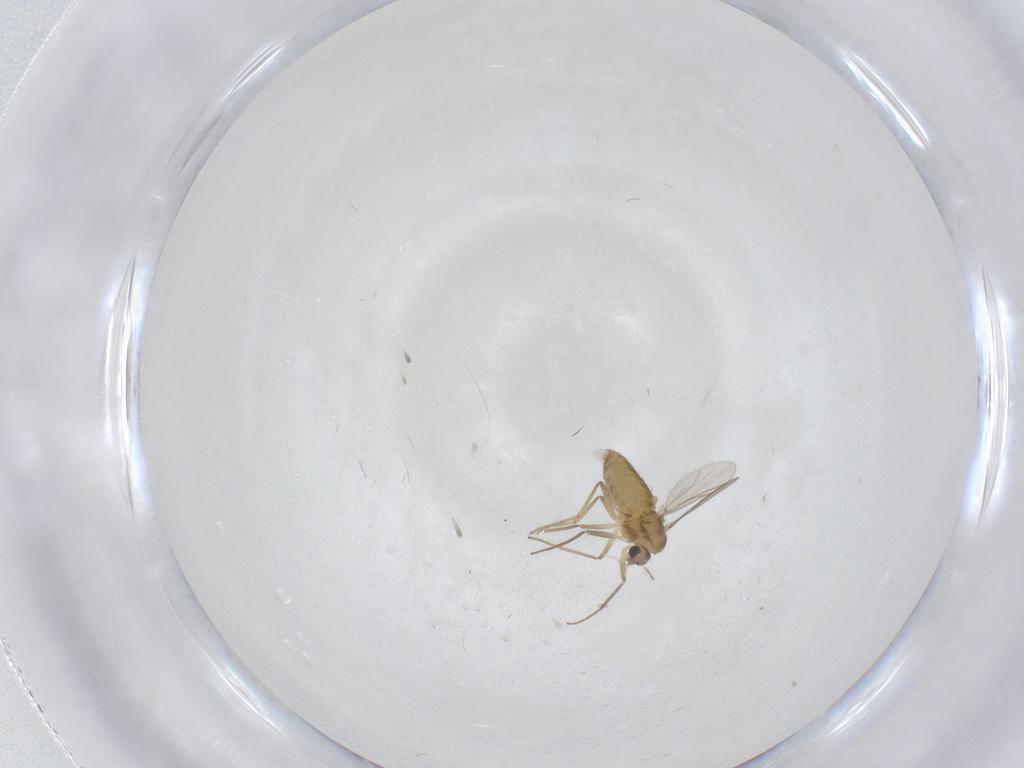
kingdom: Animalia
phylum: Arthropoda
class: Insecta
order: Diptera
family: Chironomidae
